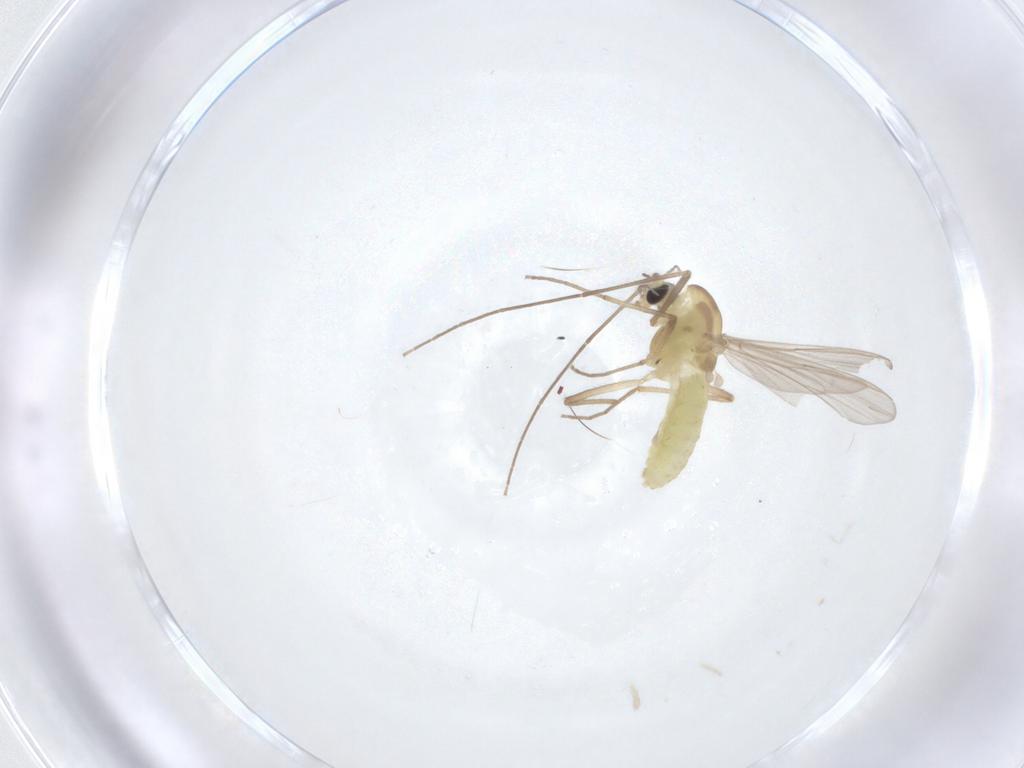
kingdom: Animalia
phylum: Arthropoda
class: Insecta
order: Diptera
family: Chironomidae
